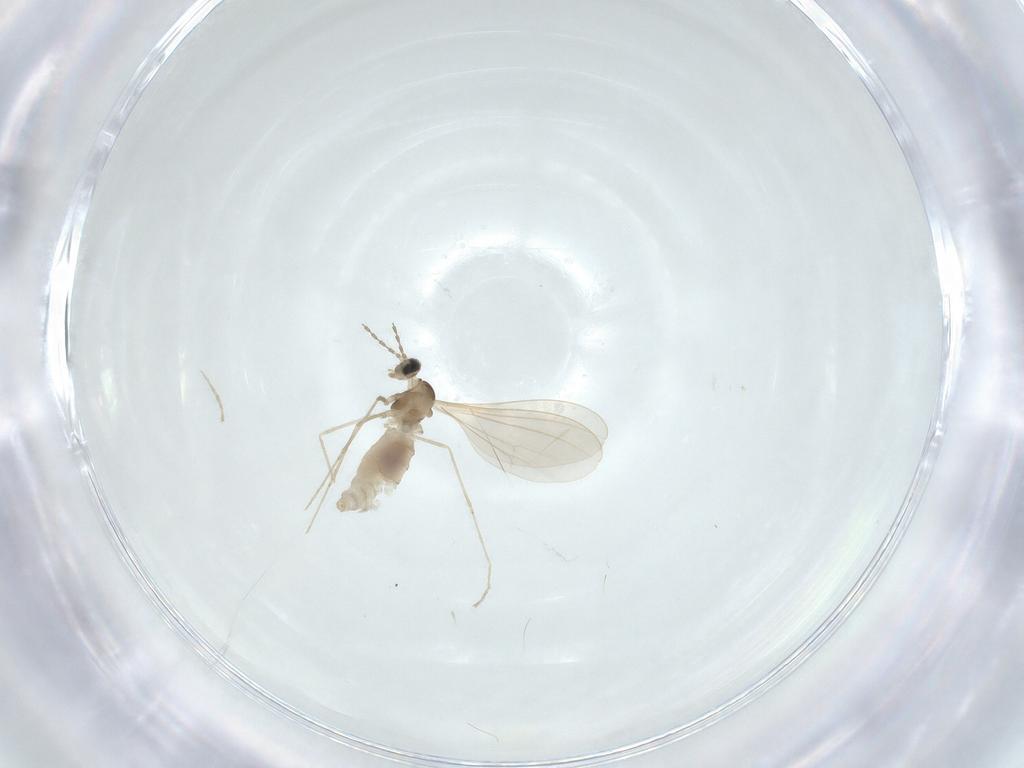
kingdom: Animalia
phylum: Arthropoda
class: Insecta
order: Diptera
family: Cecidomyiidae
